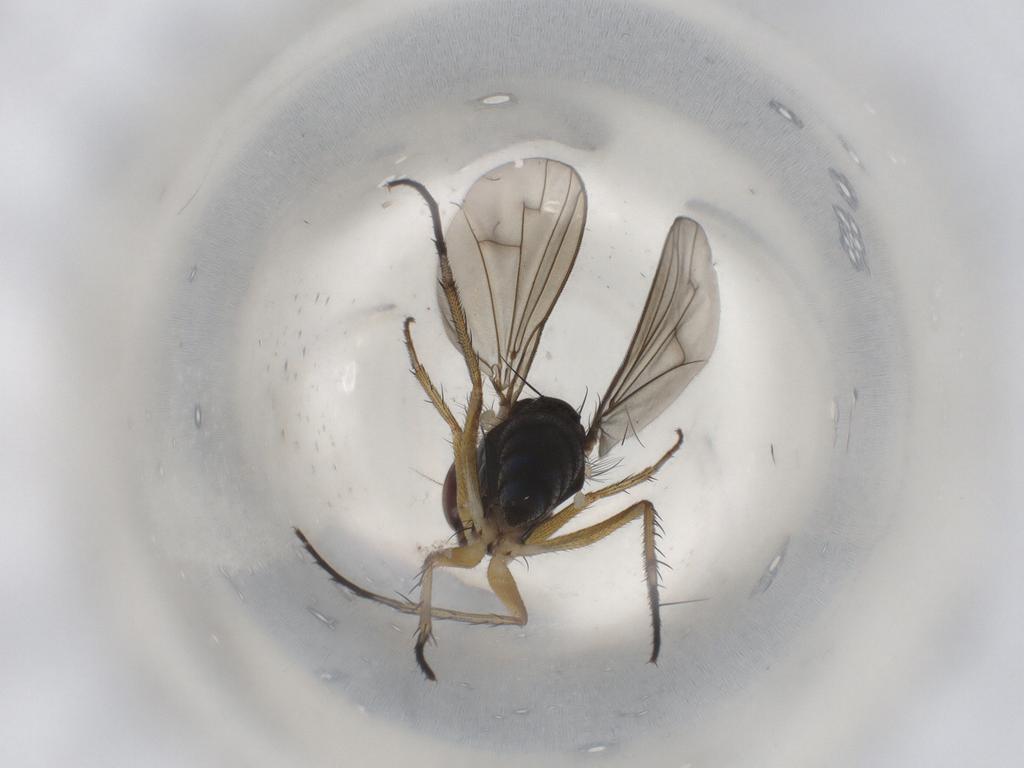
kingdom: Animalia
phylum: Arthropoda
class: Insecta
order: Diptera
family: Dolichopodidae
